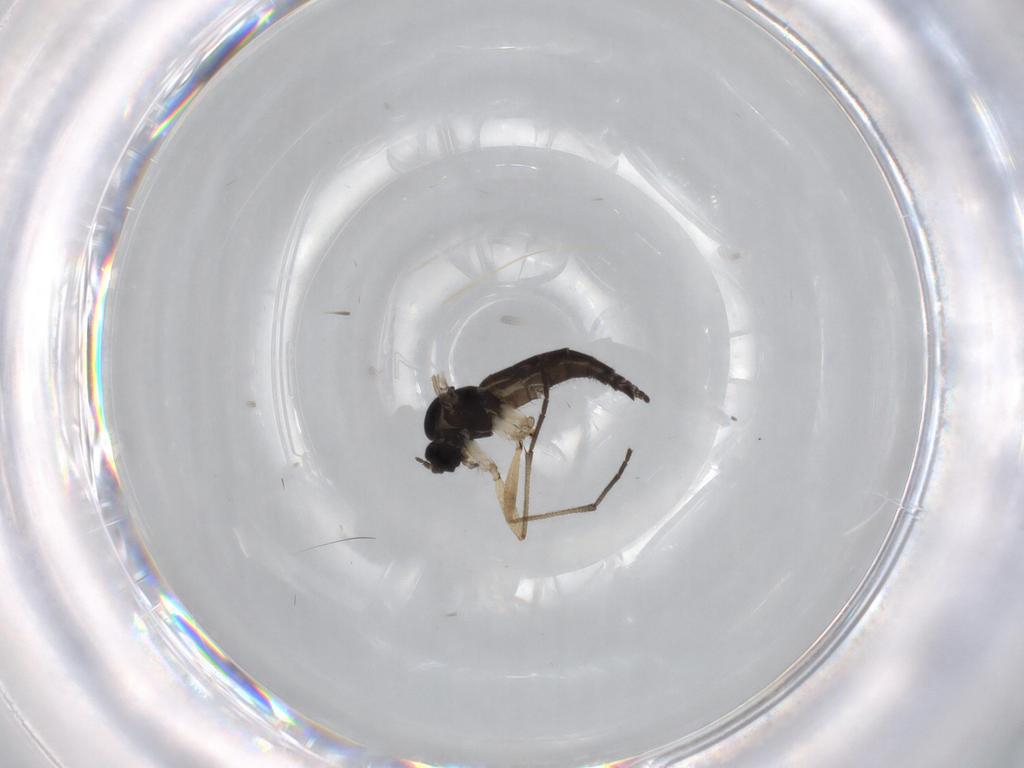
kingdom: Animalia
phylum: Arthropoda
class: Insecta
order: Diptera
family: Sciaridae
